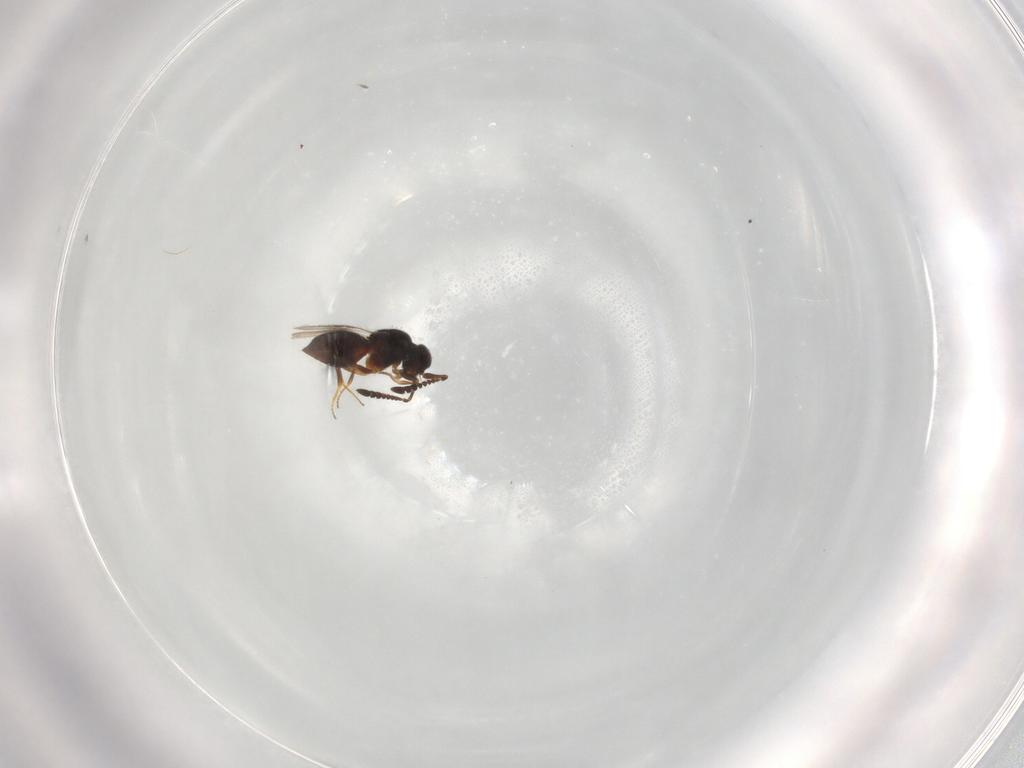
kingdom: Animalia
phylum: Arthropoda
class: Insecta
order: Hymenoptera
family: Ceraphronidae
